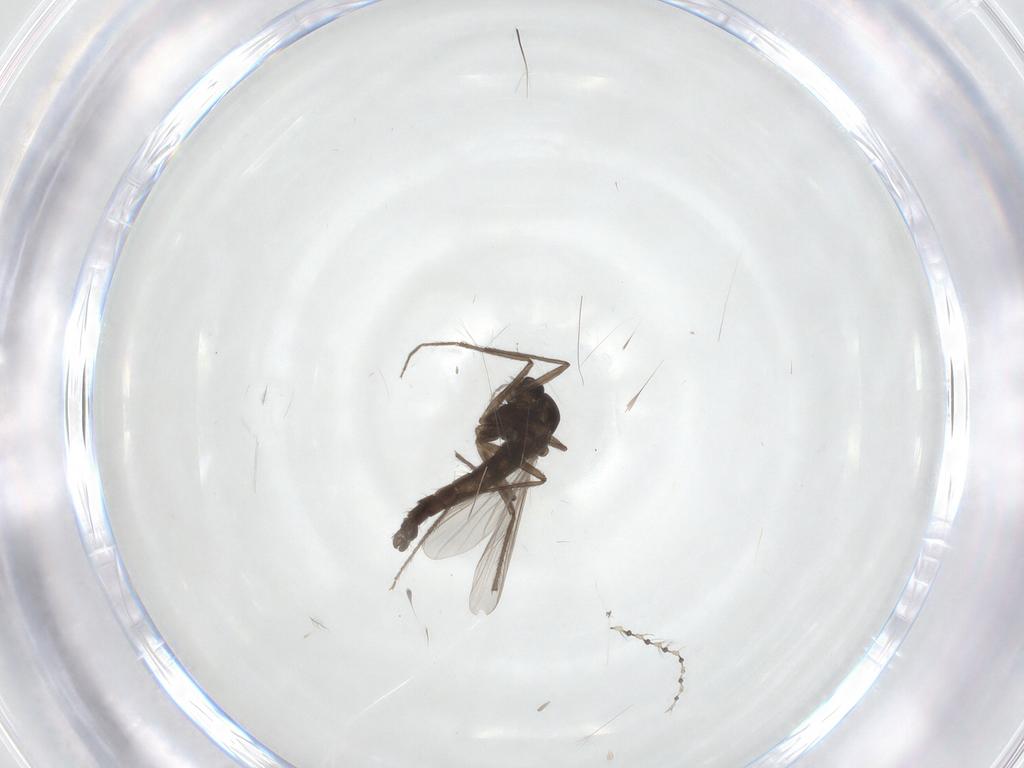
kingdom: Animalia
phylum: Arthropoda
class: Insecta
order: Diptera
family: Chironomidae
